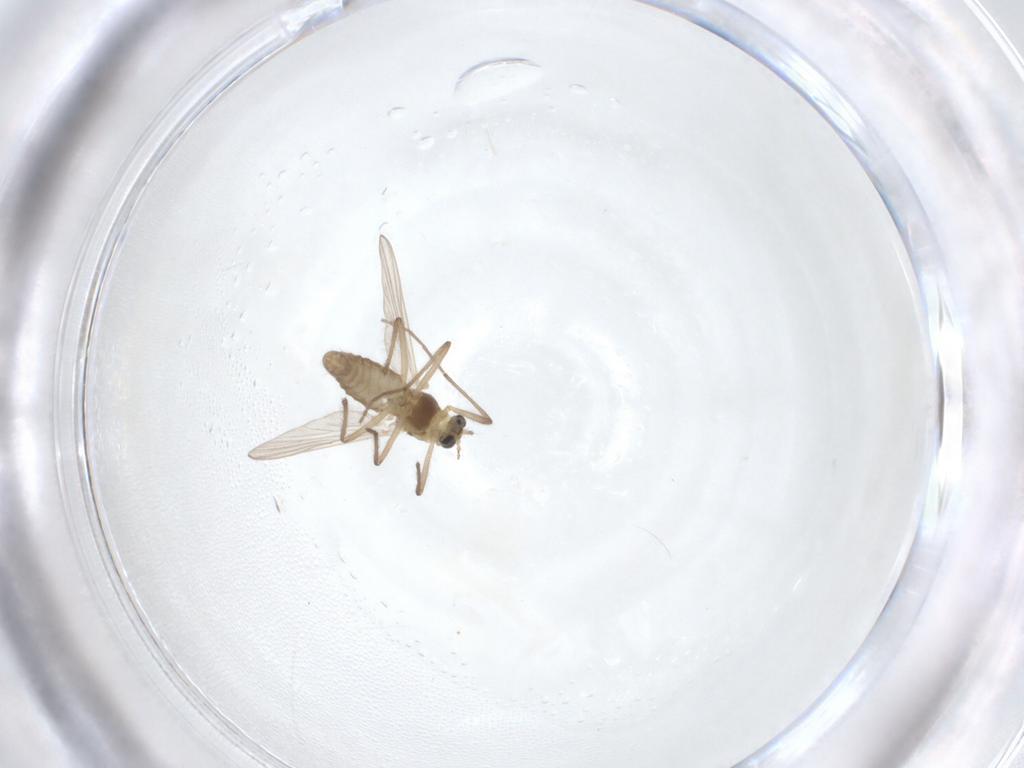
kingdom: Animalia
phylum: Arthropoda
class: Insecta
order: Diptera
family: Chironomidae
